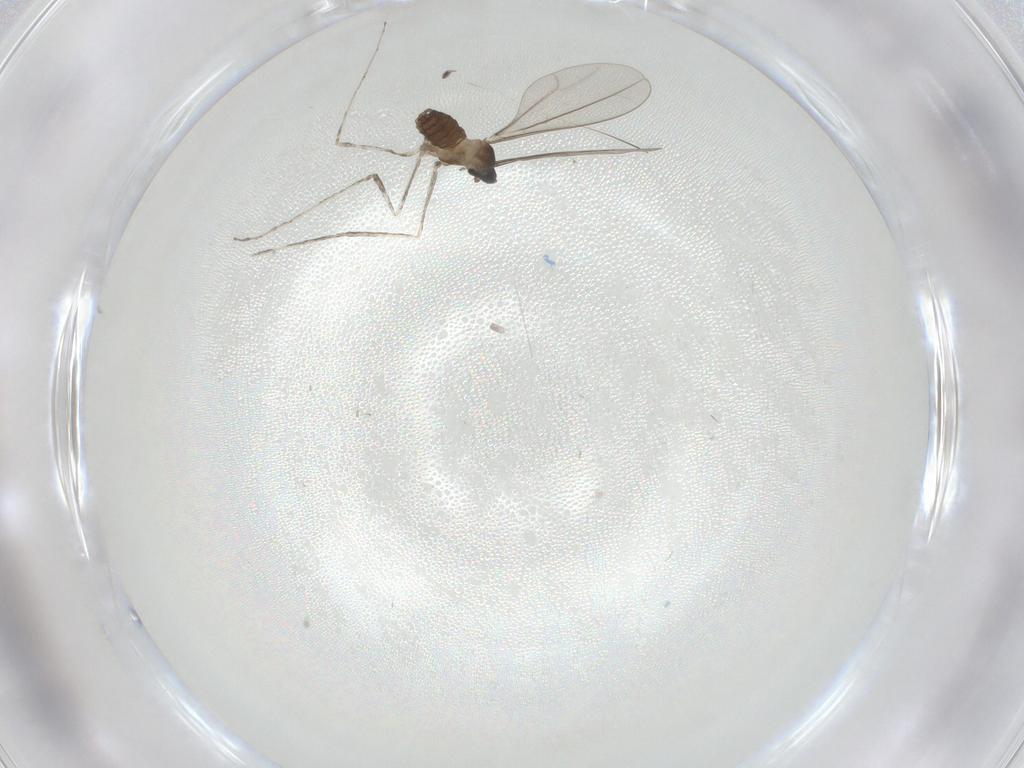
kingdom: Animalia
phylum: Arthropoda
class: Insecta
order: Diptera
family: Cecidomyiidae
